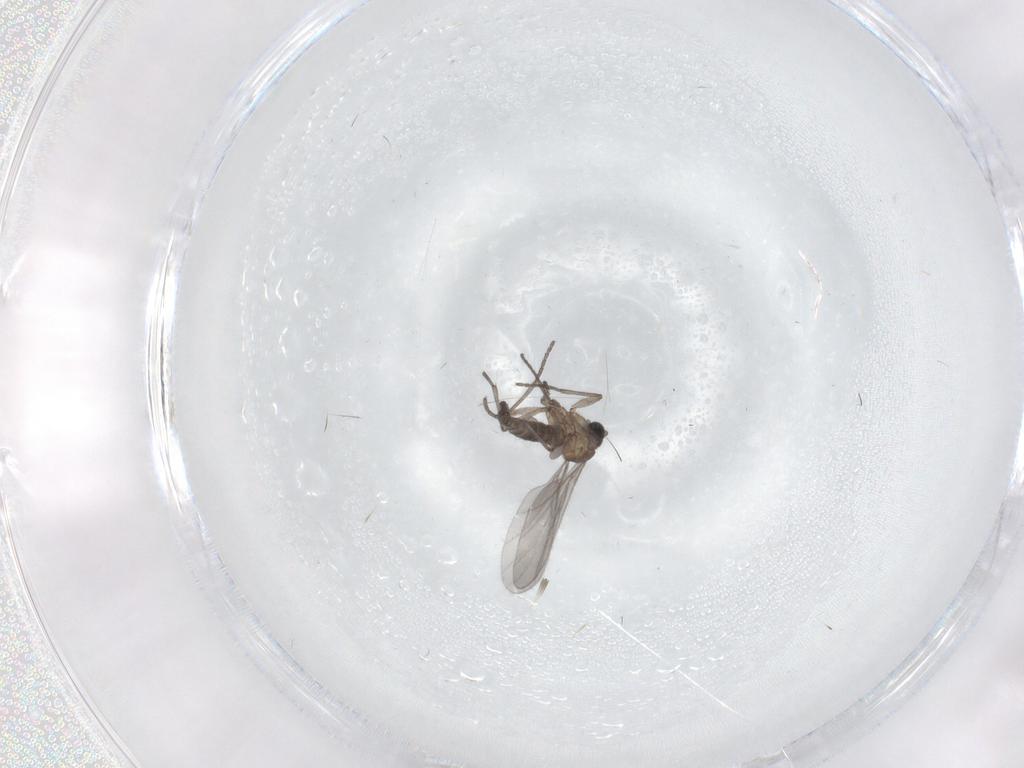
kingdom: Animalia
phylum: Arthropoda
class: Insecta
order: Diptera
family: Sciaridae
